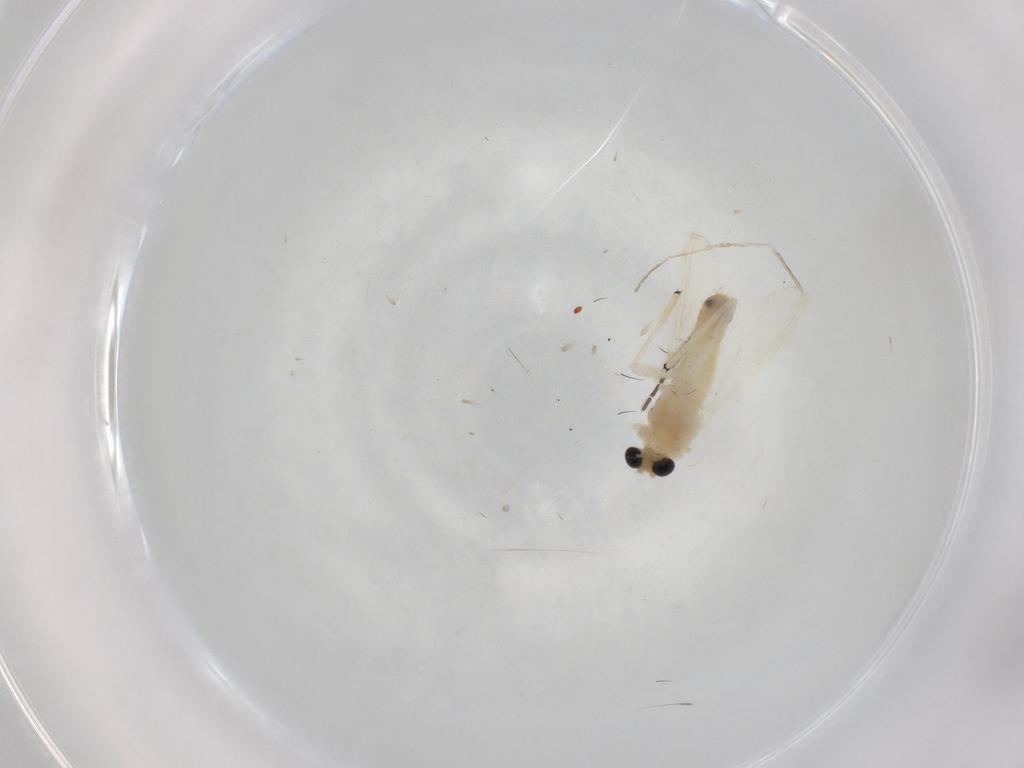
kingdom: Animalia
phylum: Arthropoda
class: Insecta
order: Diptera
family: Sciaridae
